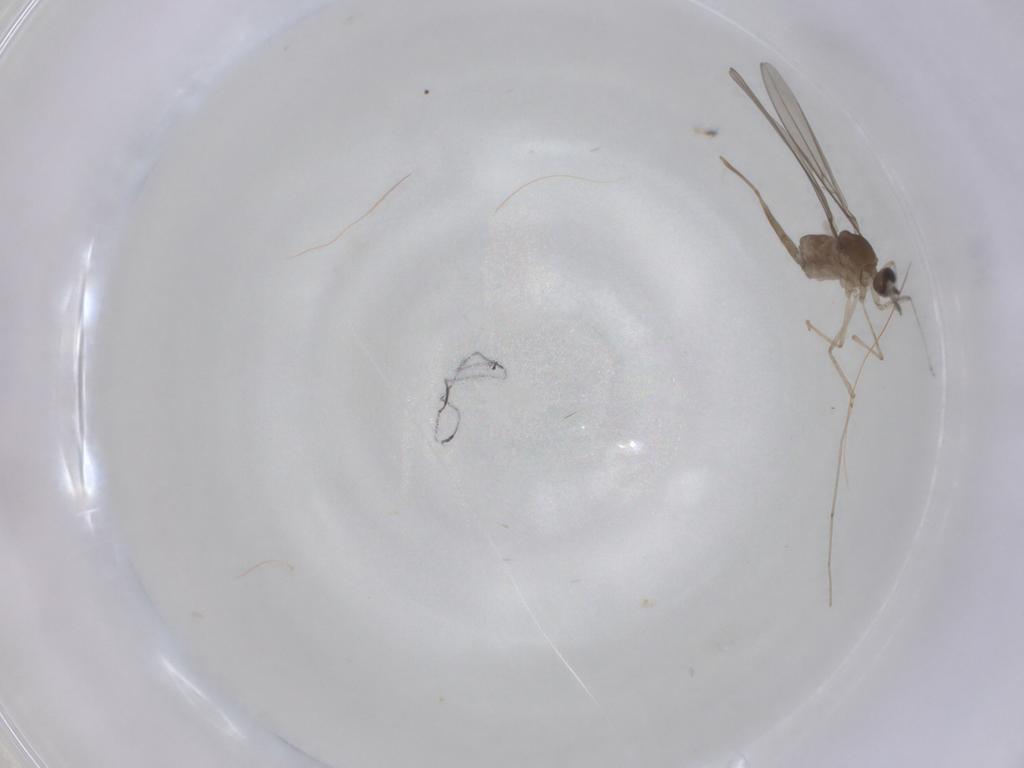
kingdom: Animalia
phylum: Arthropoda
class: Insecta
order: Diptera
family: Cecidomyiidae
